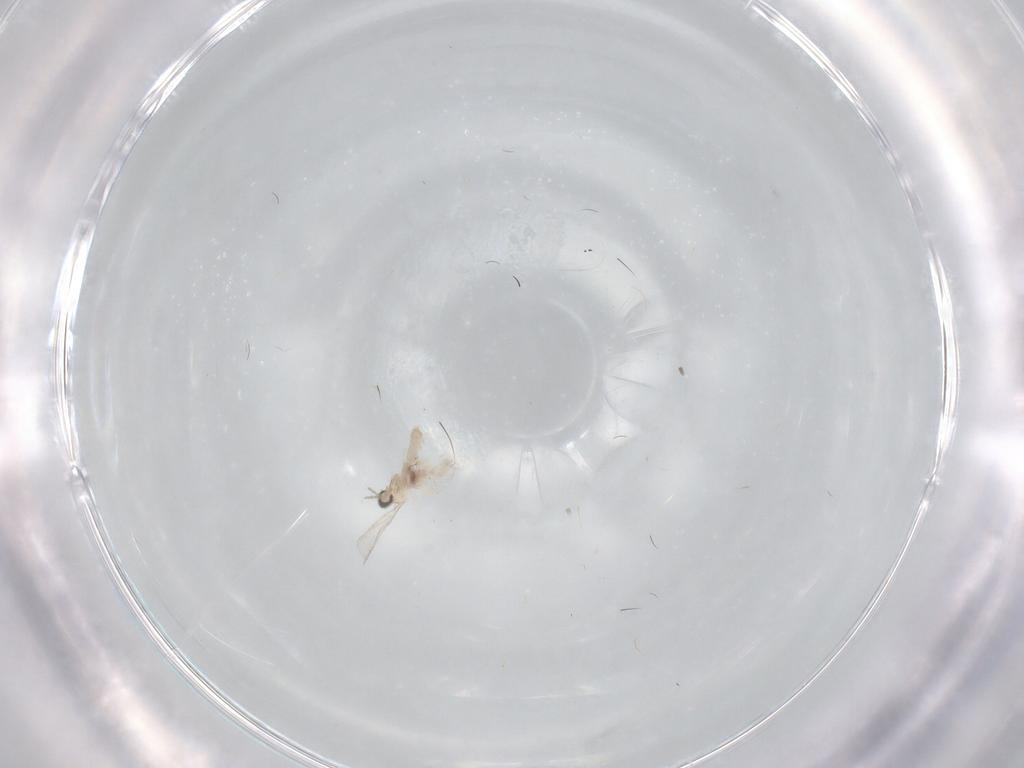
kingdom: Animalia
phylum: Arthropoda
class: Insecta
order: Diptera
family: Cecidomyiidae
